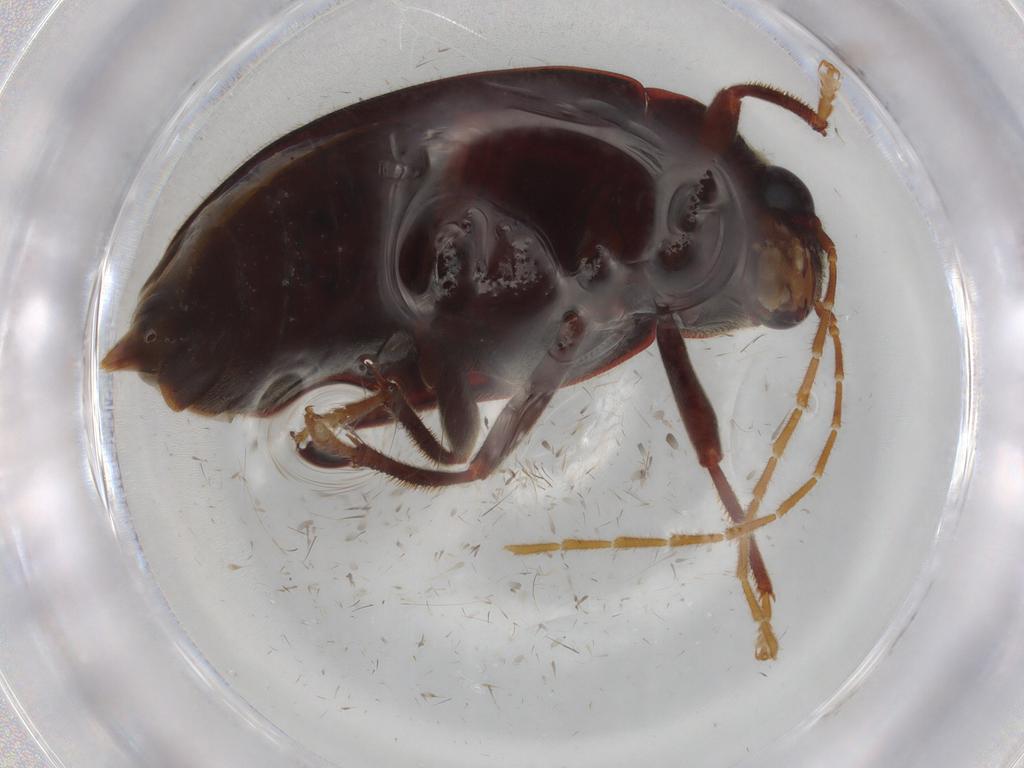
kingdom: Animalia
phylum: Arthropoda
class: Insecta
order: Coleoptera
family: Ptilodactylidae
